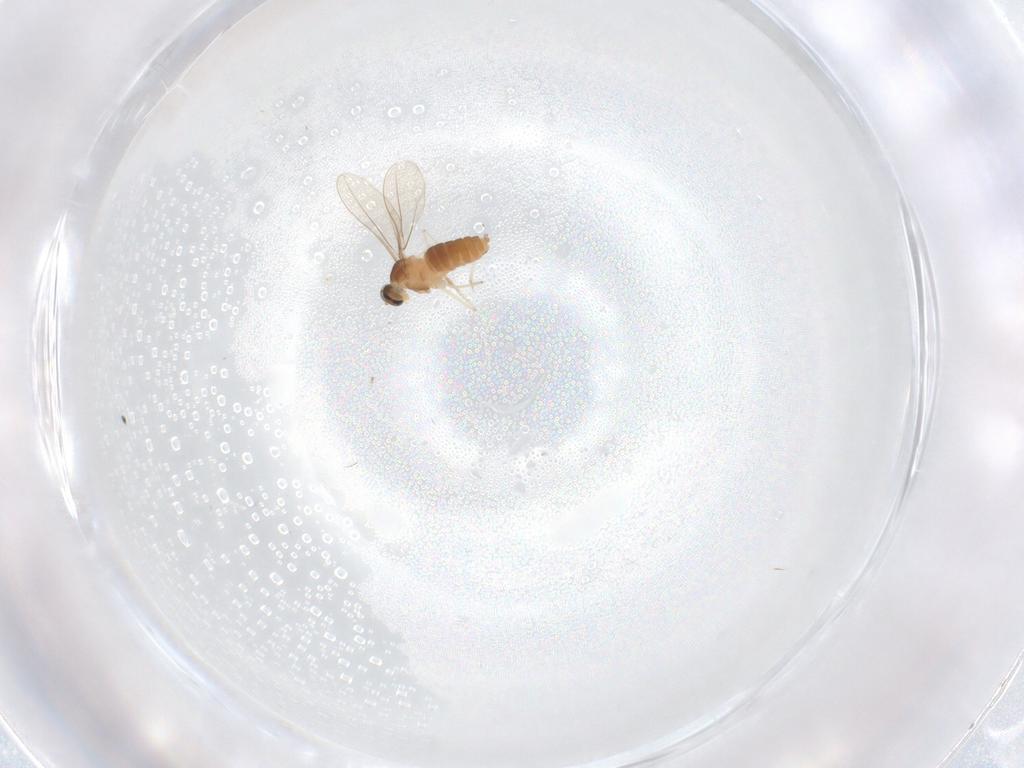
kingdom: Animalia
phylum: Arthropoda
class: Insecta
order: Diptera
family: Cecidomyiidae
